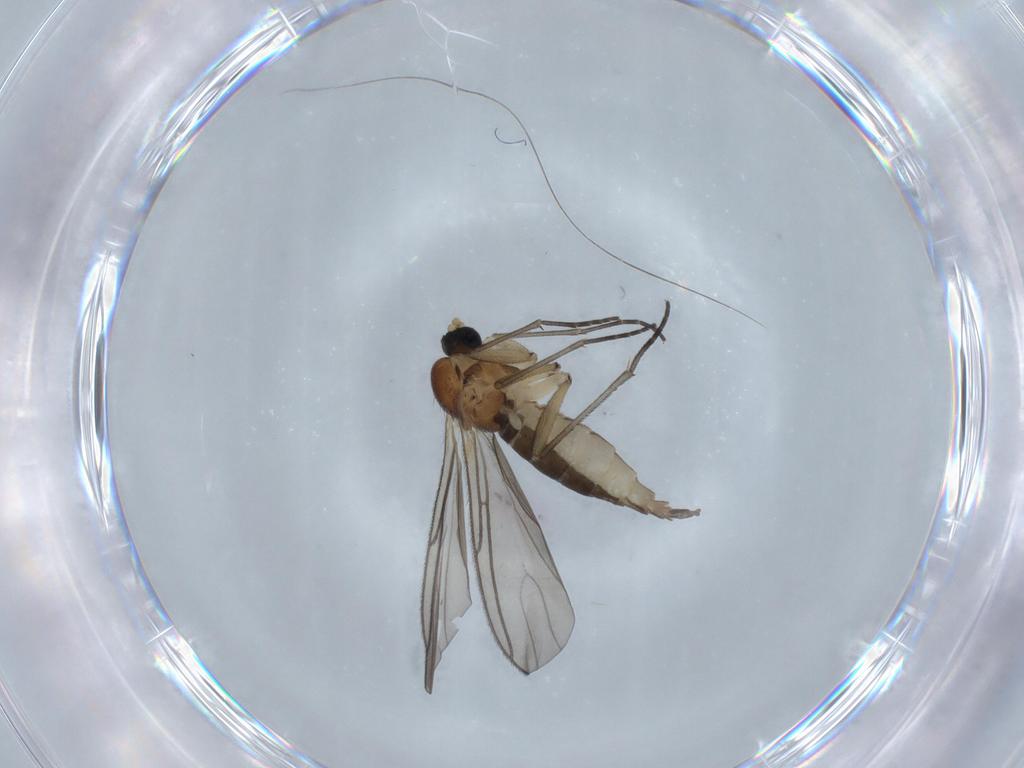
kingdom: Animalia
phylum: Arthropoda
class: Insecta
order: Diptera
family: Sciaridae
